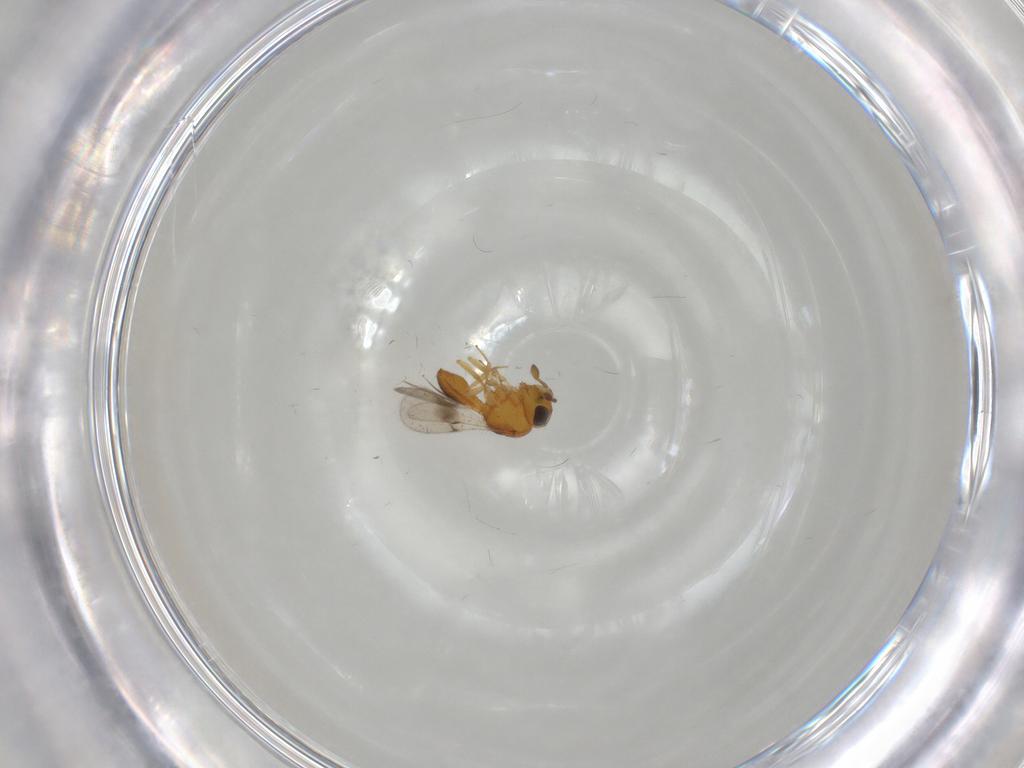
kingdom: Animalia
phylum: Arthropoda
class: Insecta
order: Hymenoptera
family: Scelionidae
